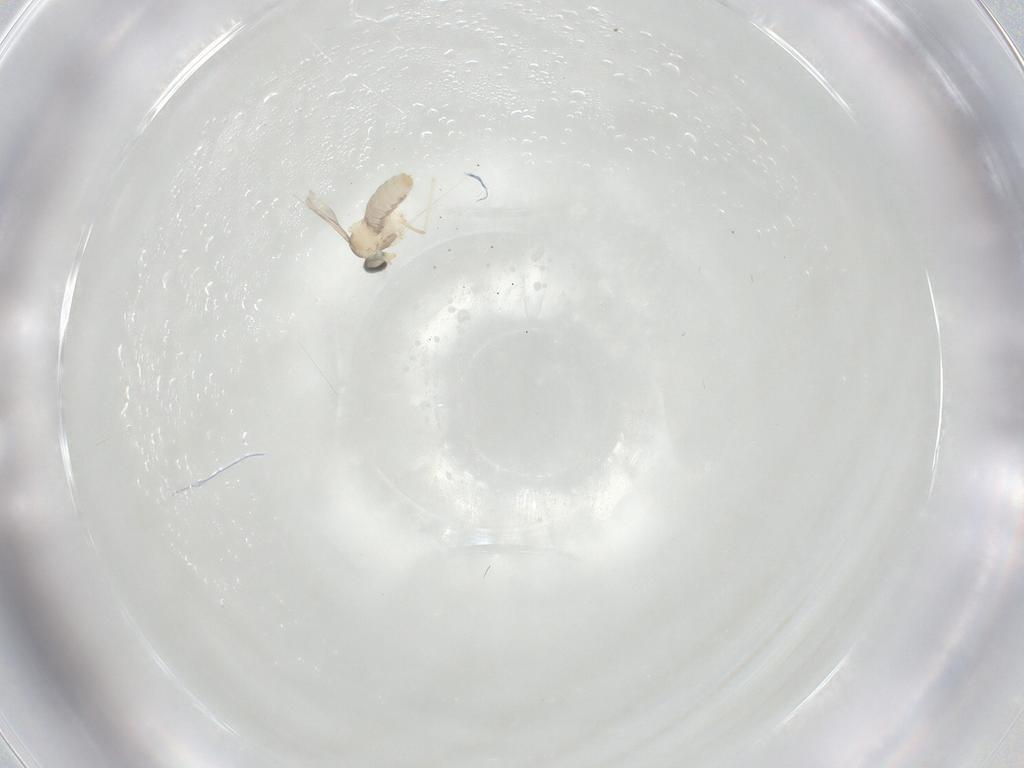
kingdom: Animalia
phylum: Arthropoda
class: Insecta
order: Diptera
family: Cecidomyiidae
